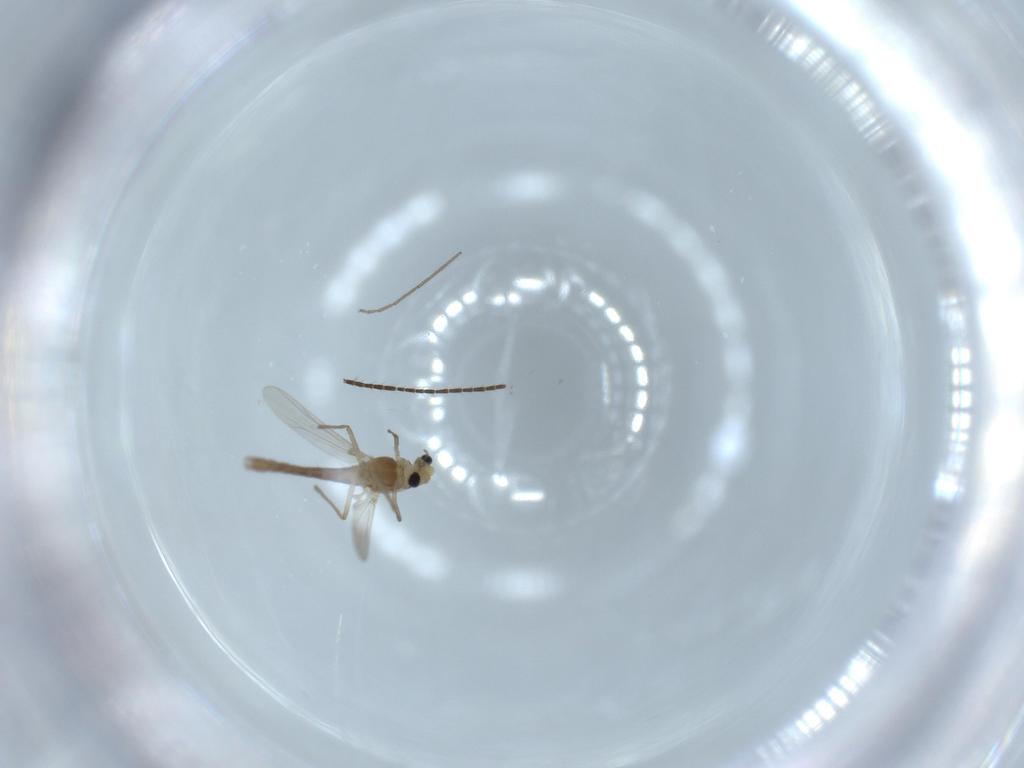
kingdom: Animalia
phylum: Arthropoda
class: Insecta
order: Diptera
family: Chironomidae
